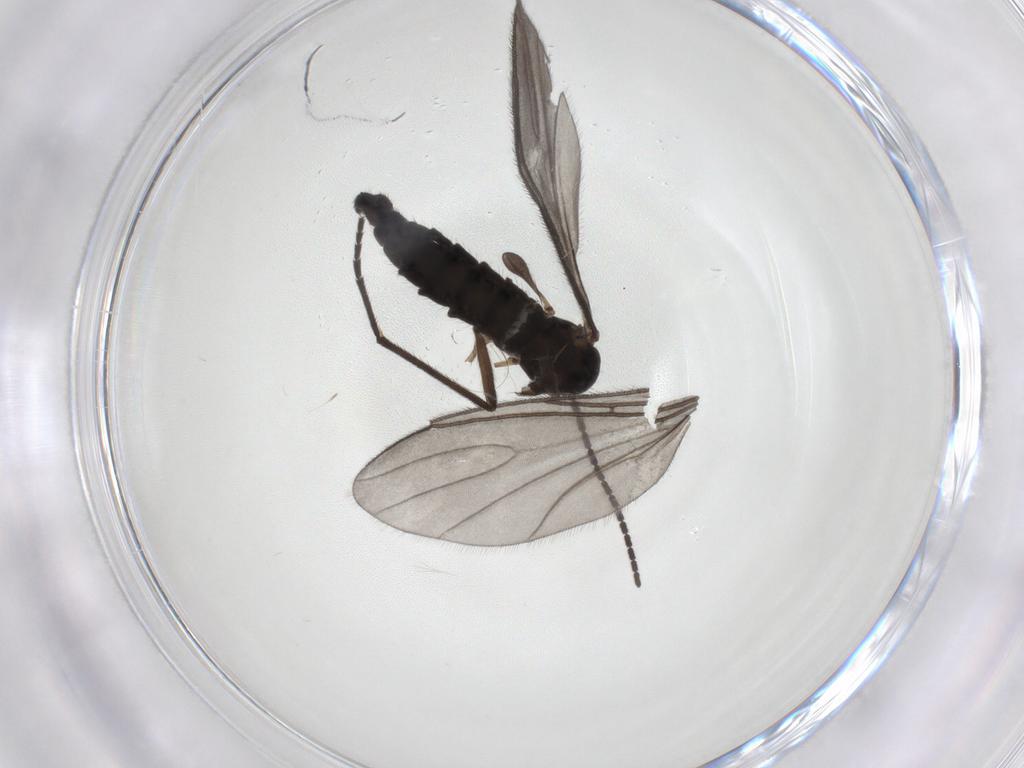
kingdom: Animalia
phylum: Arthropoda
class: Insecta
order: Diptera
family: Sciaridae
